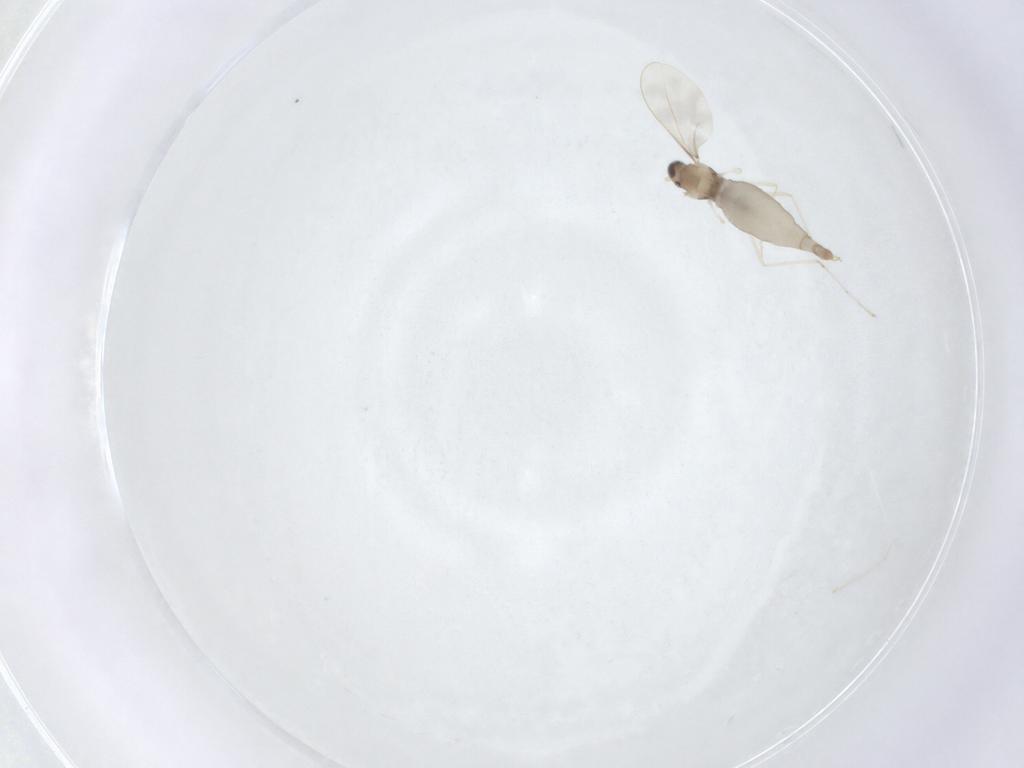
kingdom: Animalia
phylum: Arthropoda
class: Insecta
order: Diptera
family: Cecidomyiidae
